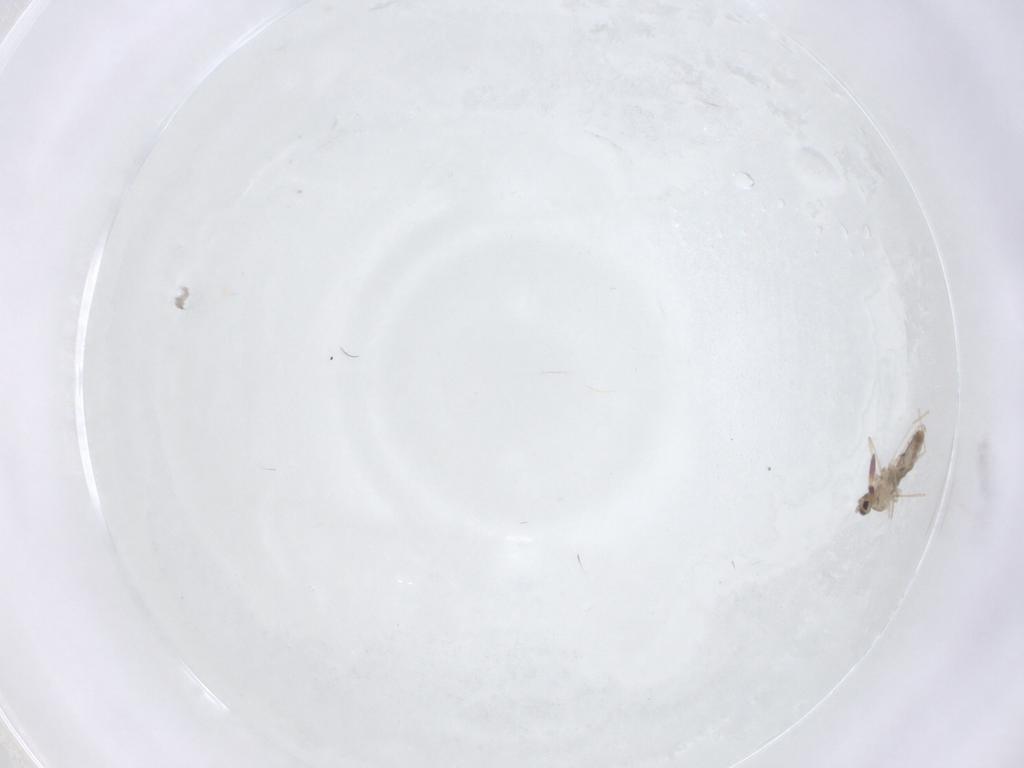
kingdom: Animalia
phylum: Arthropoda
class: Insecta
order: Diptera
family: Cecidomyiidae
